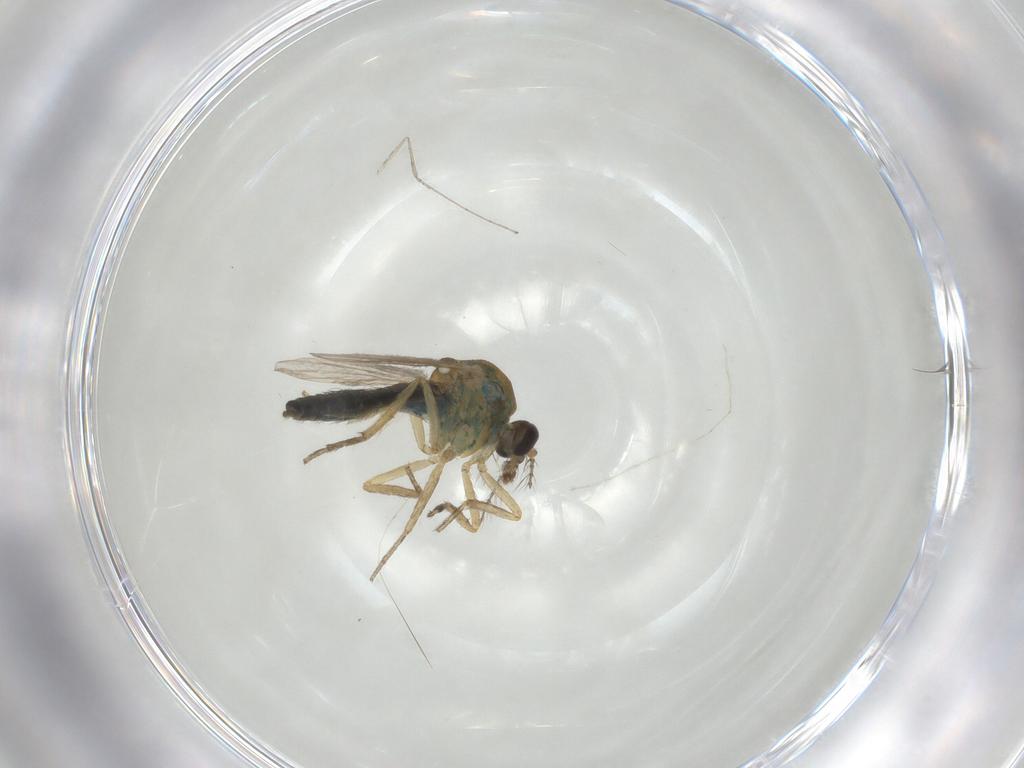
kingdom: Animalia
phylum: Arthropoda
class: Insecta
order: Diptera
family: Ceratopogonidae
